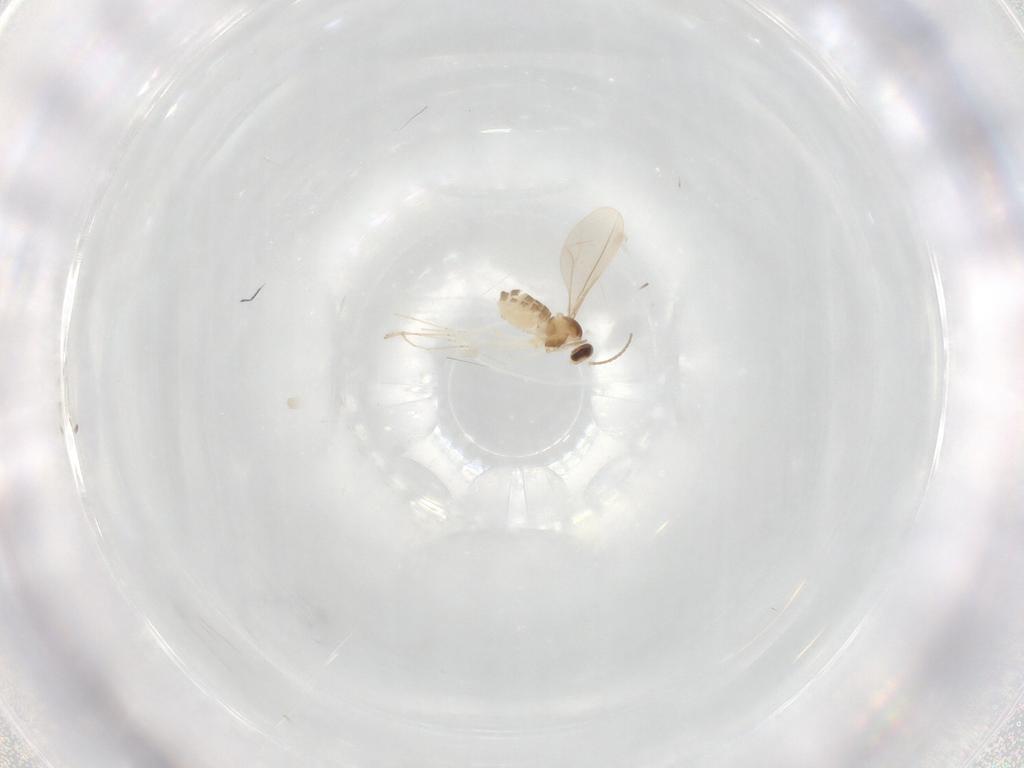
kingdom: Animalia
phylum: Arthropoda
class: Insecta
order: Diptera
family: Cecidomyiidae
